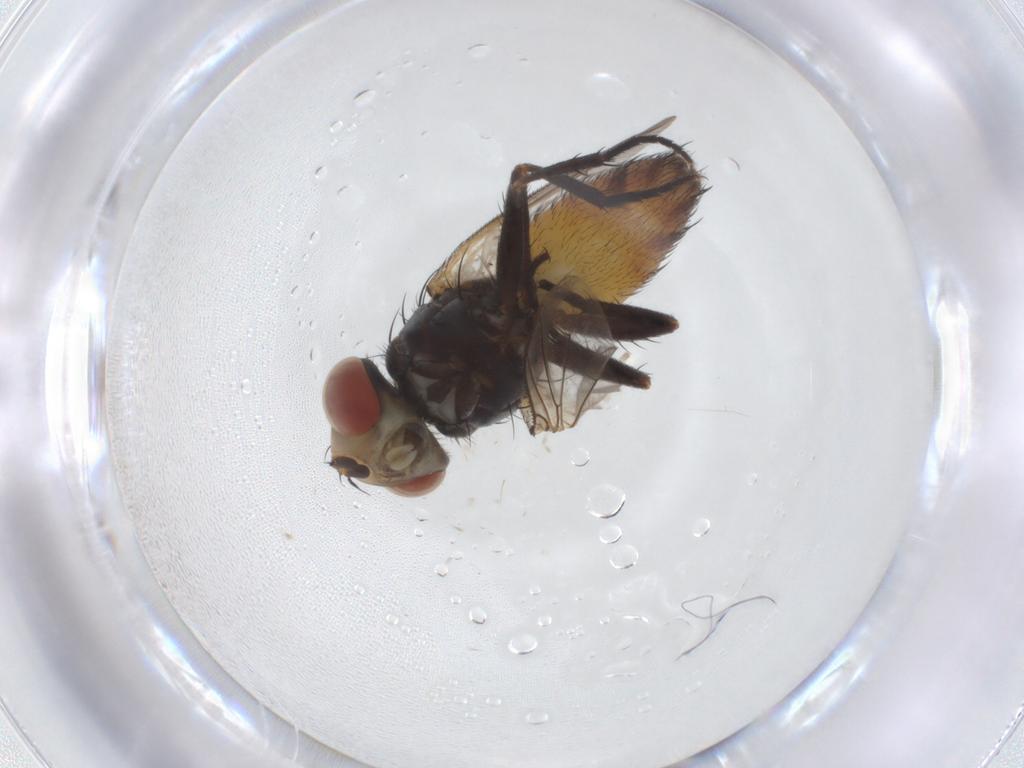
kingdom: Animalia
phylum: Arthropoda
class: Insecta
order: Diptera
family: Sarcophagidae
